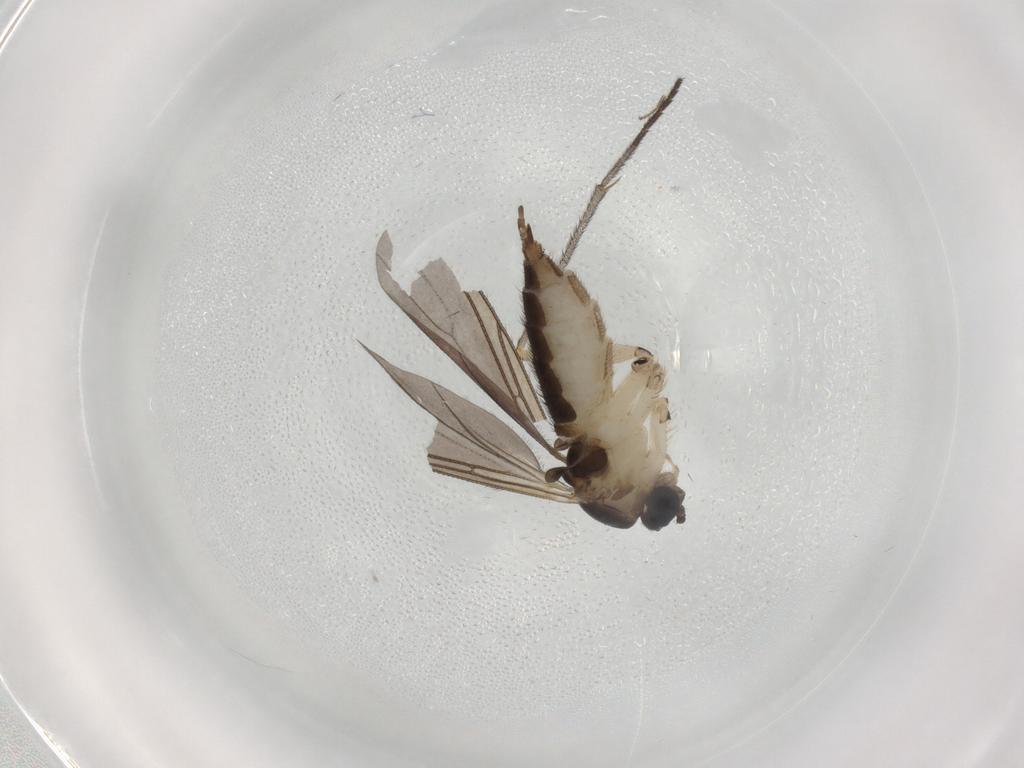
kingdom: Animalia
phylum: Arthropoda
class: Insecta
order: Diptera
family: Sciaridae
